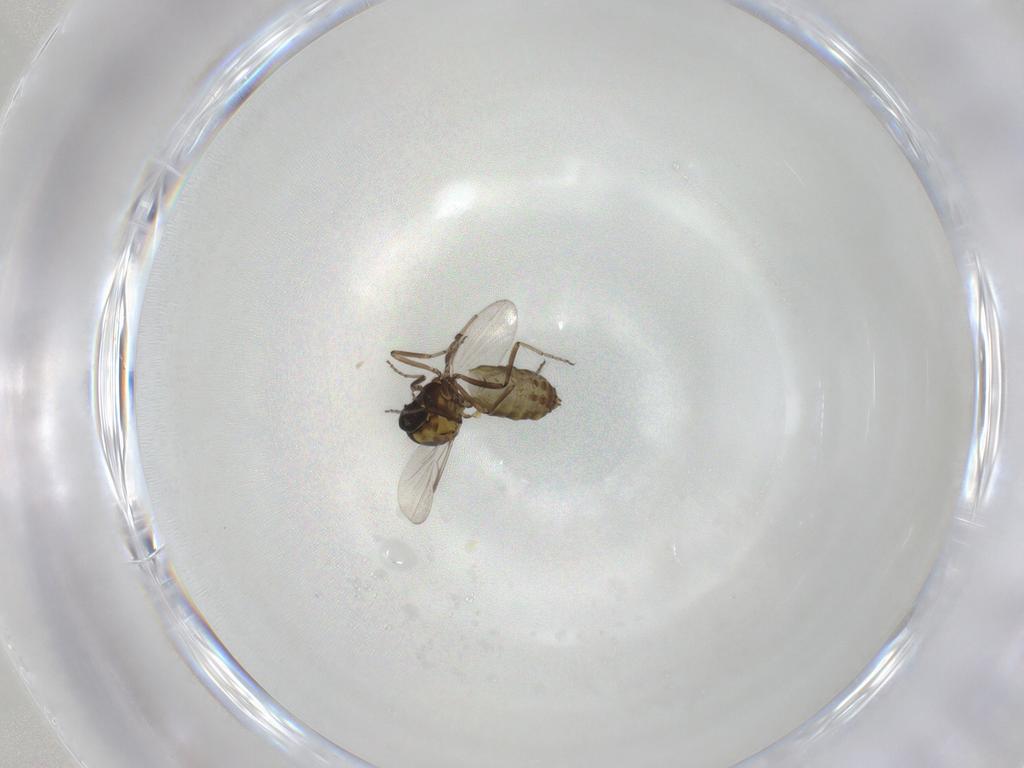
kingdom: Animalia
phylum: Arthropoda
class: Insecta
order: Diptera
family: Ceratopogonidae
